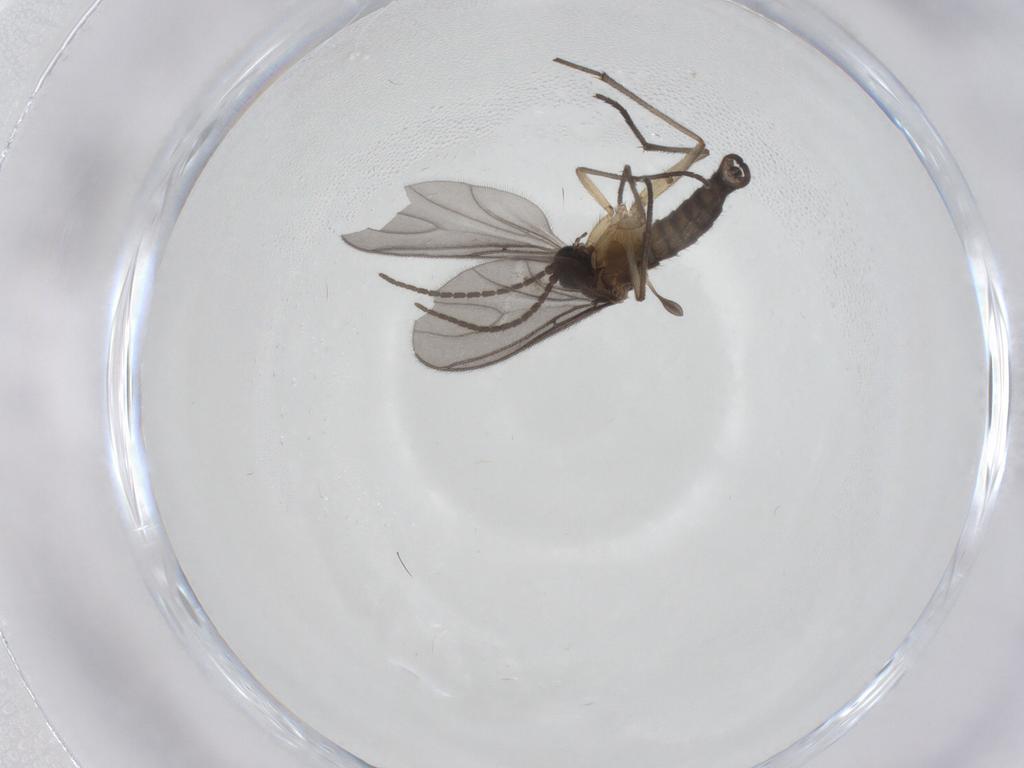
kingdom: Animalia
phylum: Arthropoda
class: Insecta
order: Diptera
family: Sciaridae
